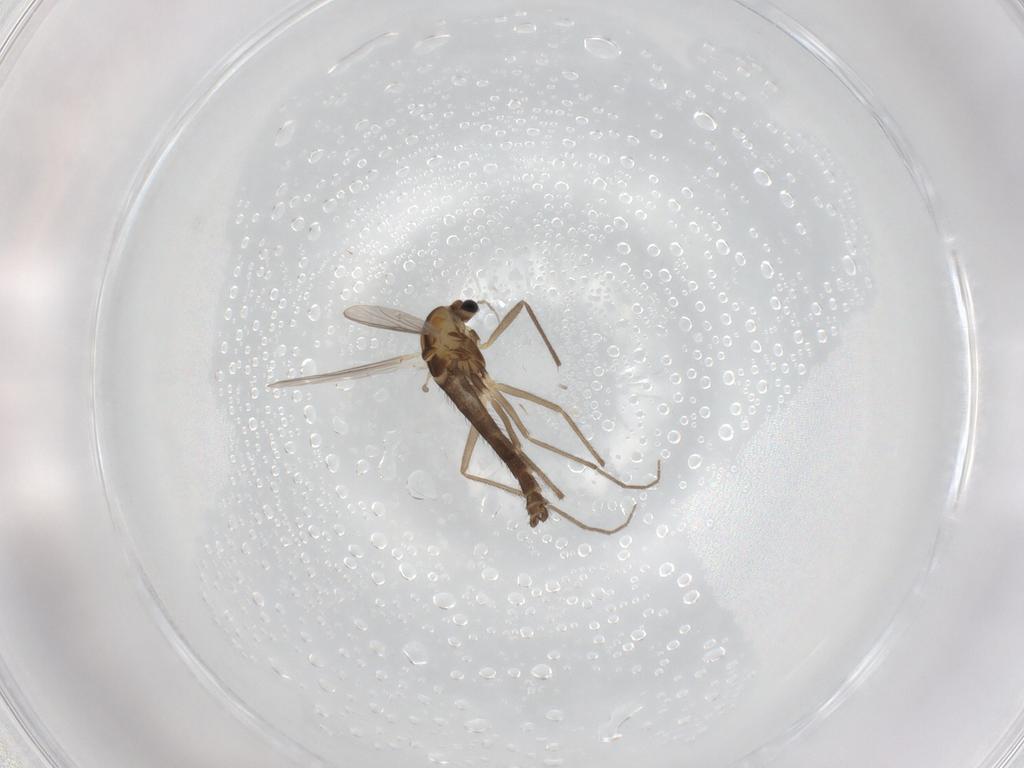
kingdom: Animalia
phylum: Arthropoda
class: Insecta
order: Diptera
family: Chironomidae
